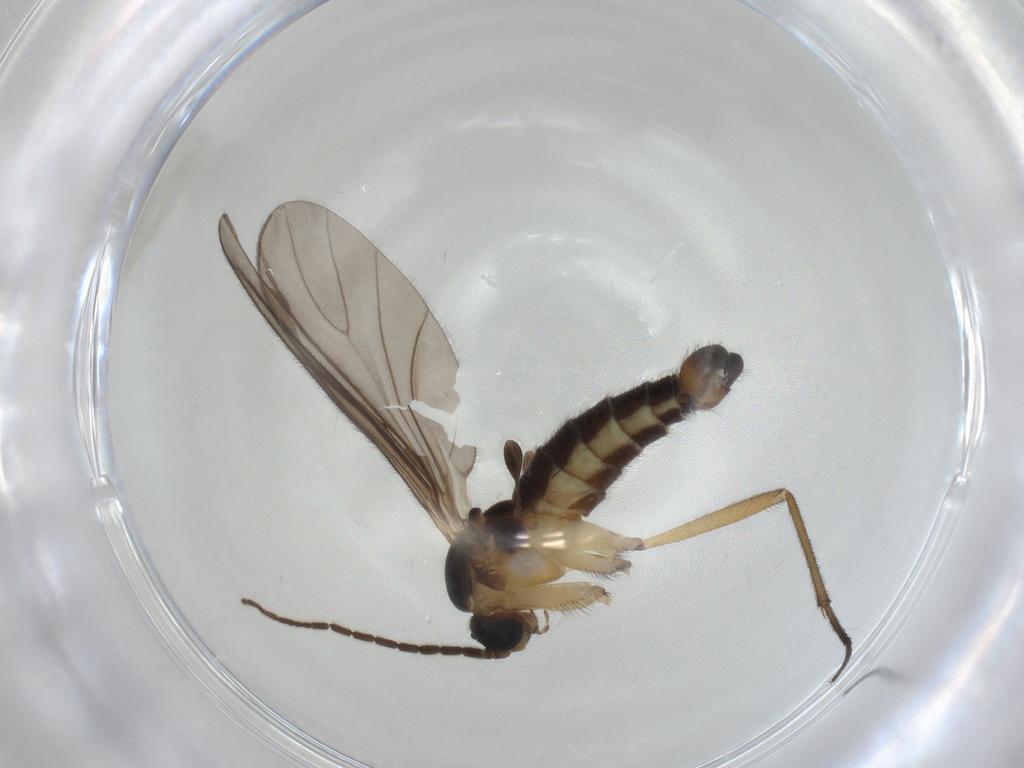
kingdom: Animalia
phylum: Arthropoda
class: Insecta
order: Diptera
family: Sciaridae
